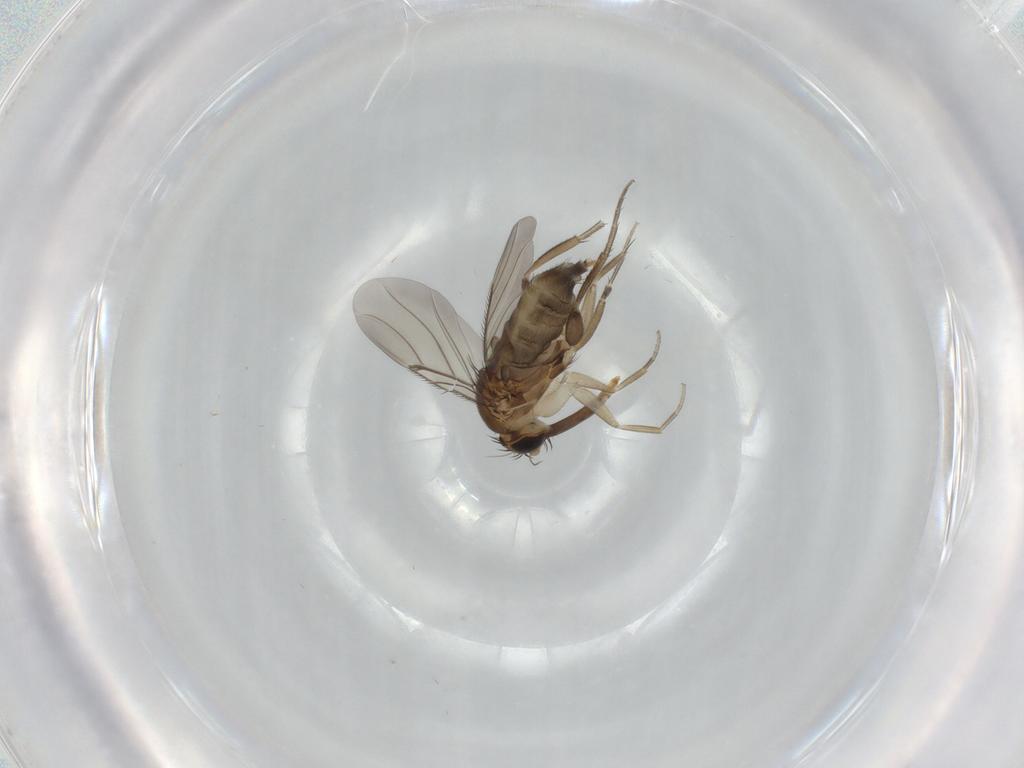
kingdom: Animalia
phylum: Arthropoda
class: Insecta
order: Diptera
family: Phoridae
